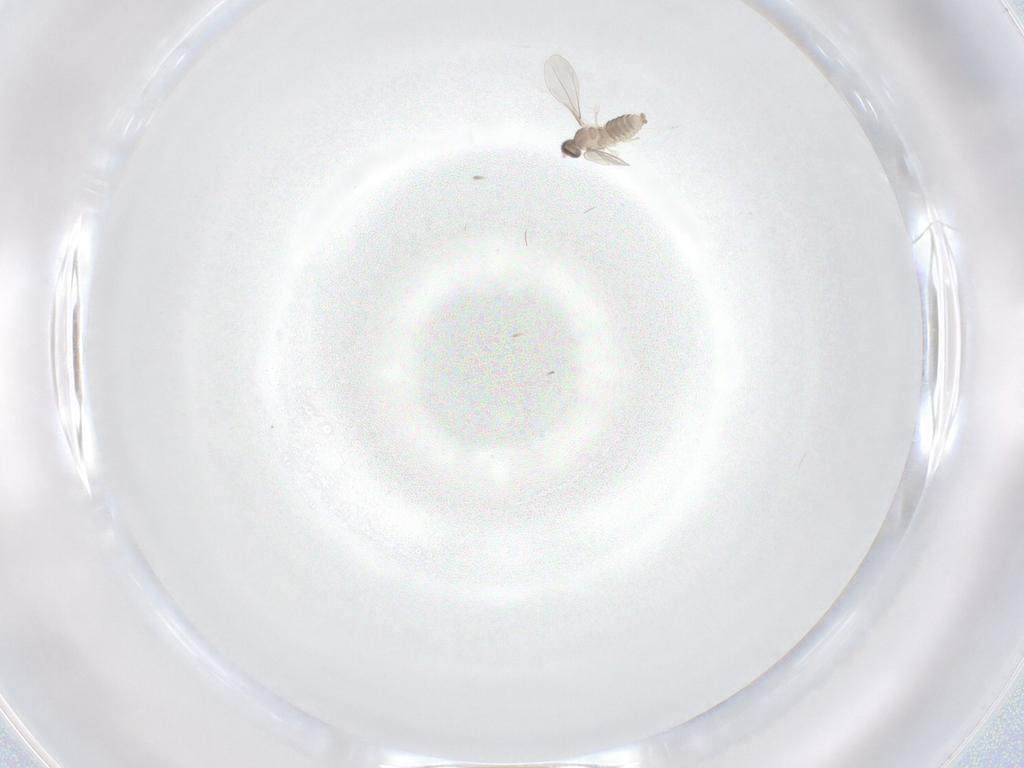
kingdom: Animalia
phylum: Arthropoda
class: Insecta
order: Diptera
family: Cecidomyiidae
